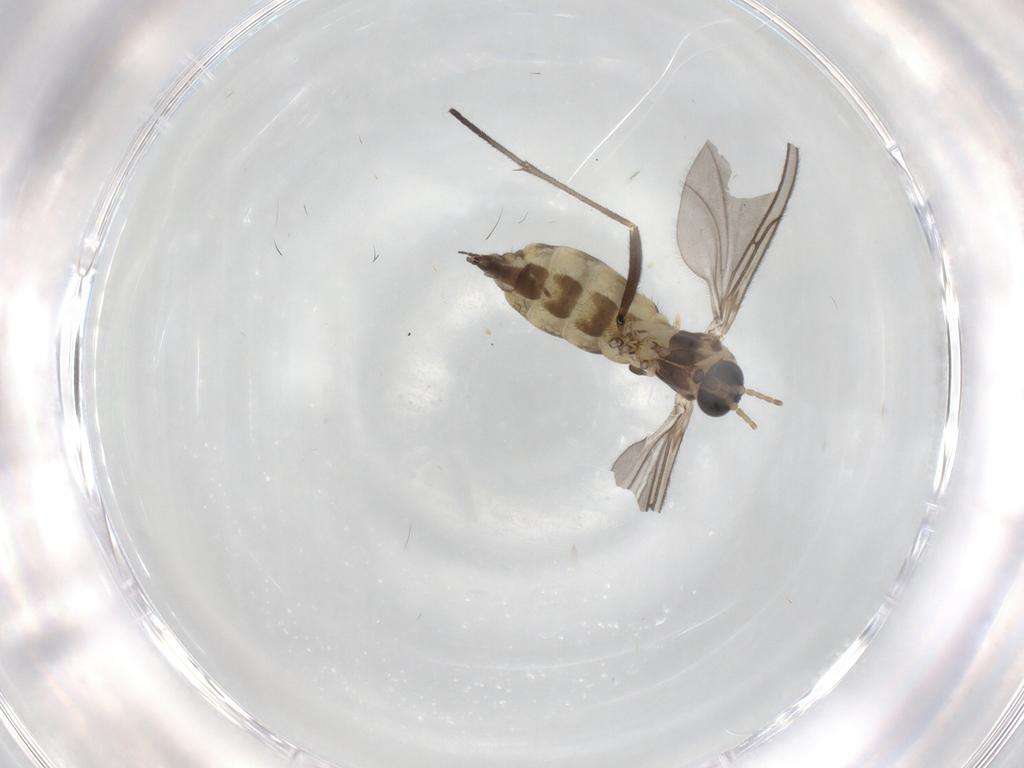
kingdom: Animalia
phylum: Arthropoda
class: Insecta
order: Diptera
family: Sciaridae
